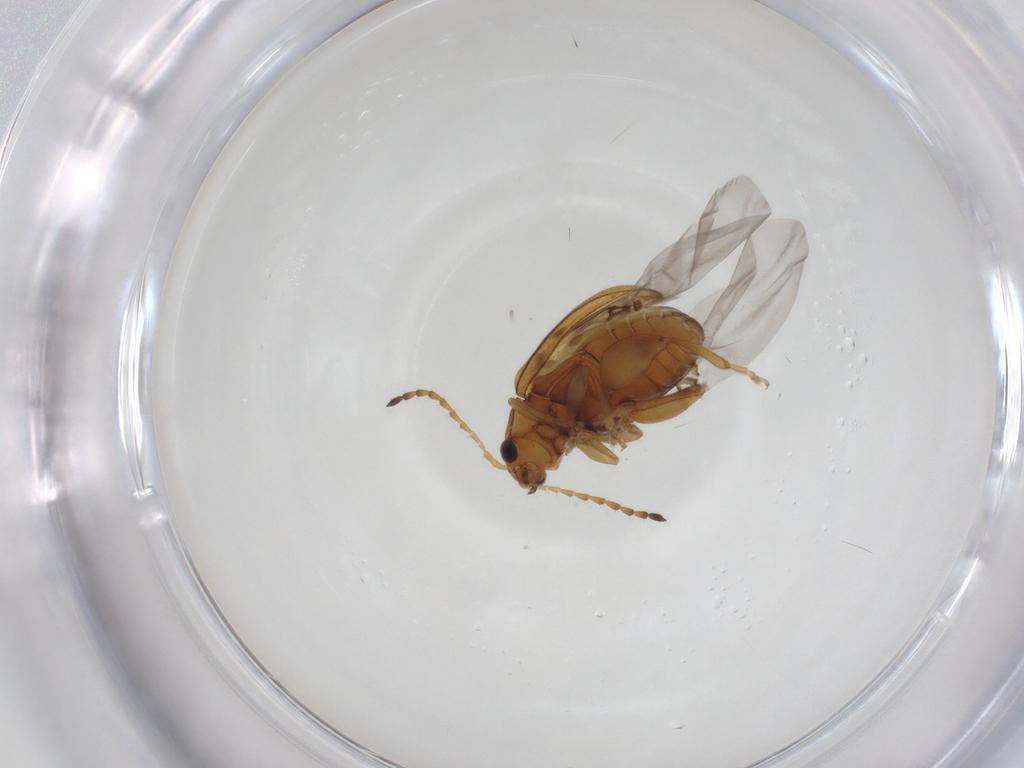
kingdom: Animalia
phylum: Arthropoda
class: Insecta
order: Coleoptera
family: Chrysomelidae
